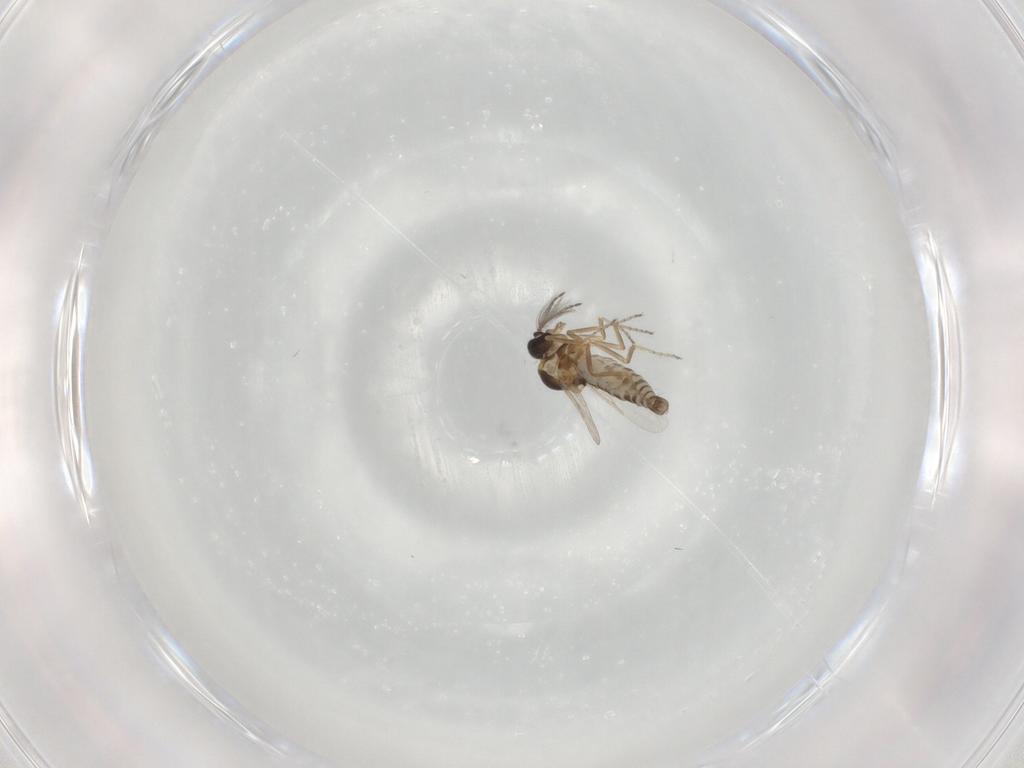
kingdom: Animalia
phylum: Arthropoda
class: Insecta
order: Diptera
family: Ceratopogonidae
